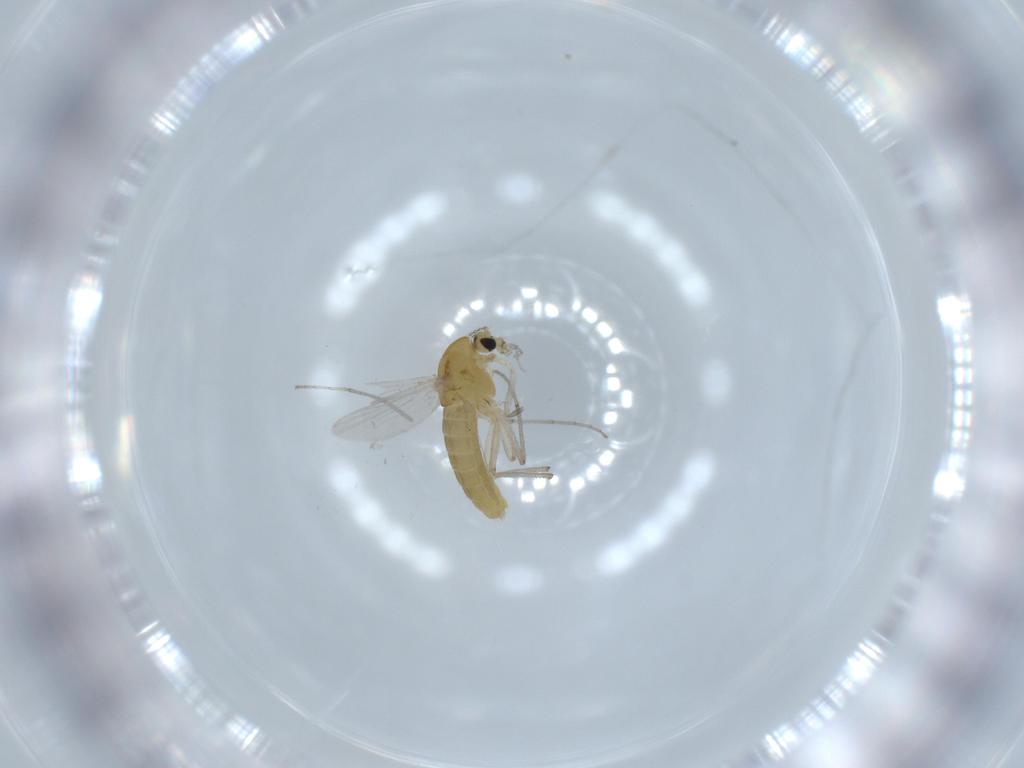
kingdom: Animalia
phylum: Arthropoda
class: Insecta
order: Diptera
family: Chironomidae
